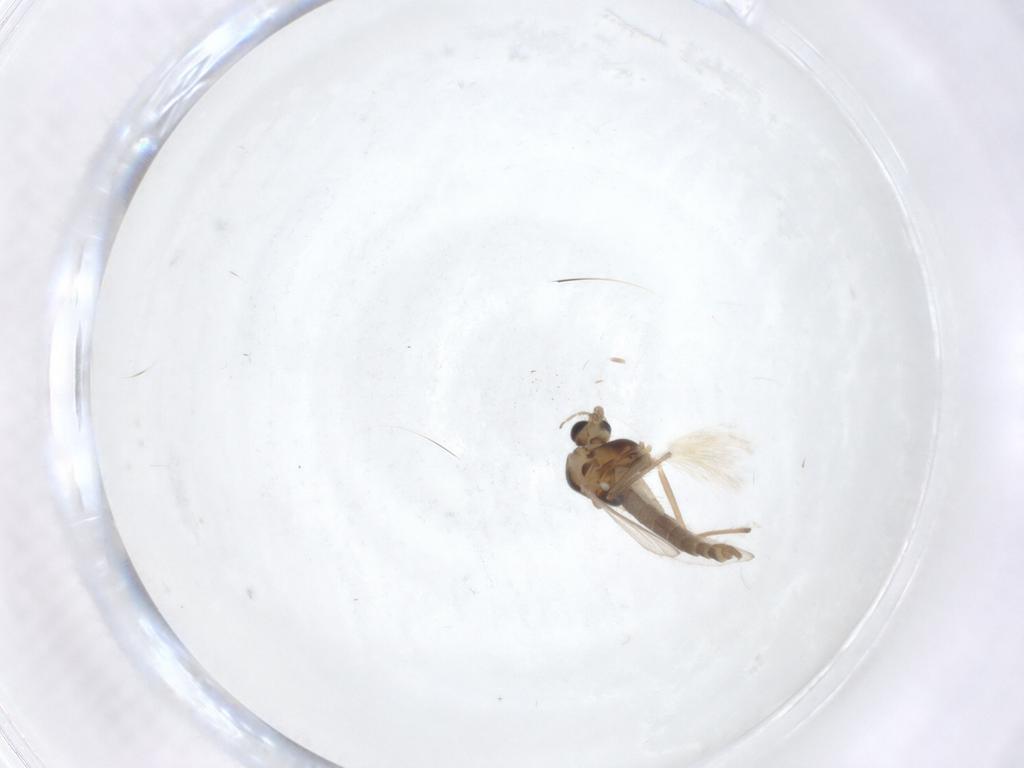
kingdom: Animalia
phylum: Arthropoda
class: Insecta
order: Diptera
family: Chironomidae
